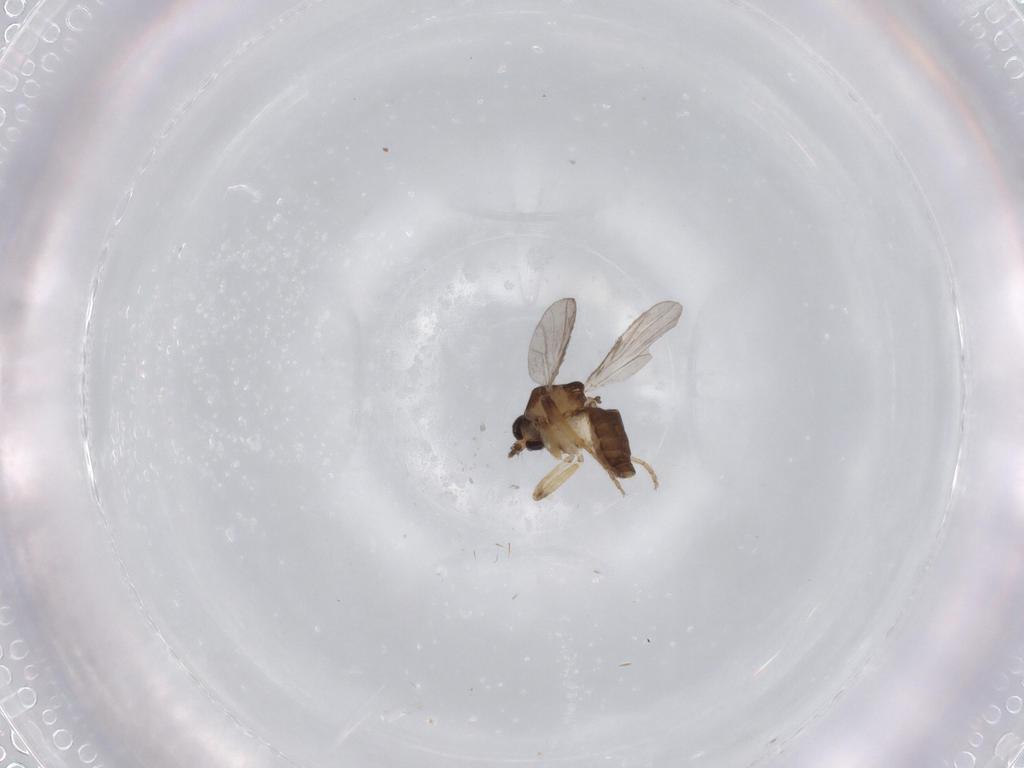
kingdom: Animalia
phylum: Arthropoda
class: Insecta
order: Diptera
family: Ceratopogonidae
